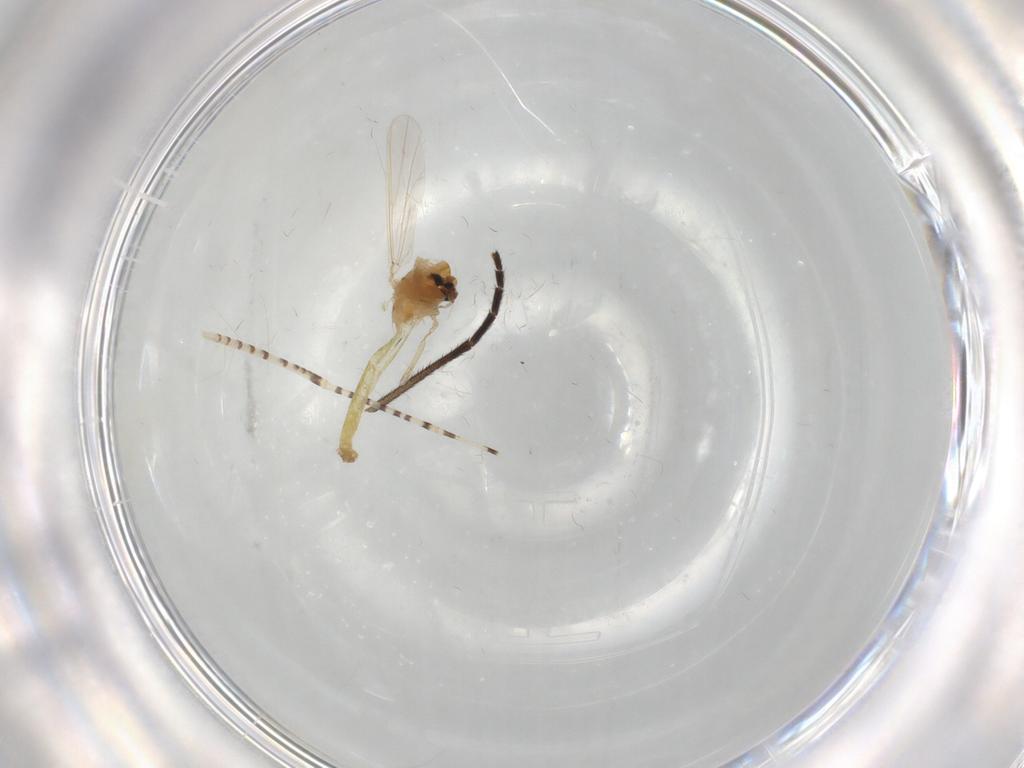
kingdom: Animalia
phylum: Arthropoda
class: Insecta
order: Diptera
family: Chironomidae
